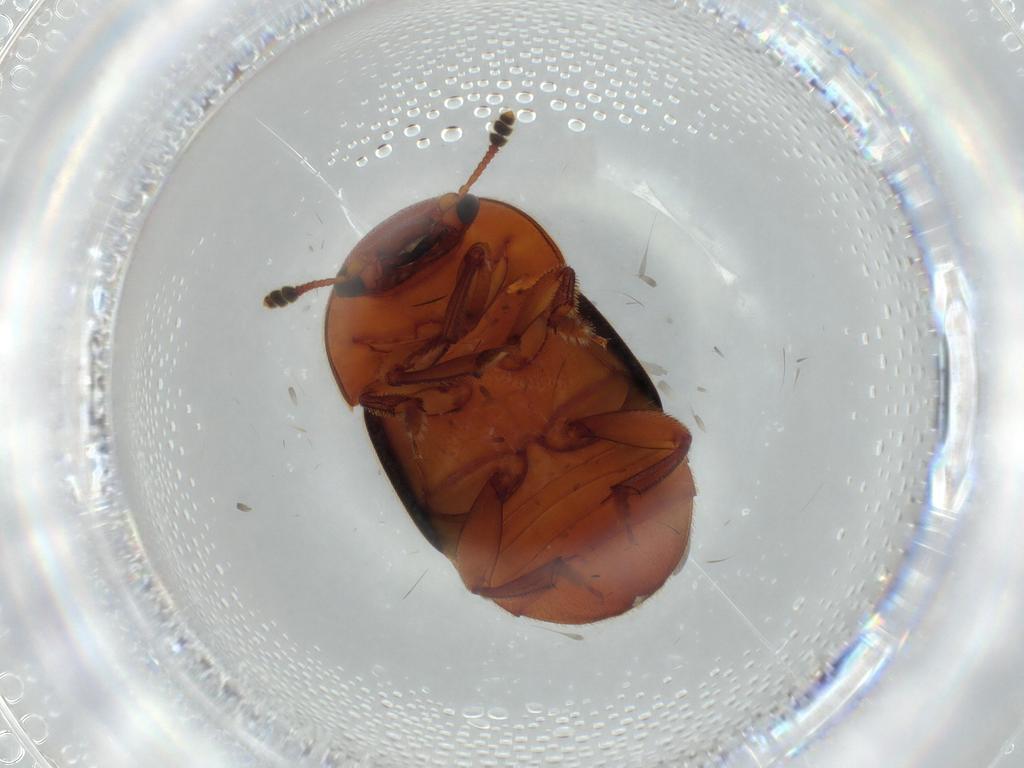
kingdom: Animalia
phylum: Arthropoda
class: Insecta
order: Coleoptera
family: Nitidulidae
